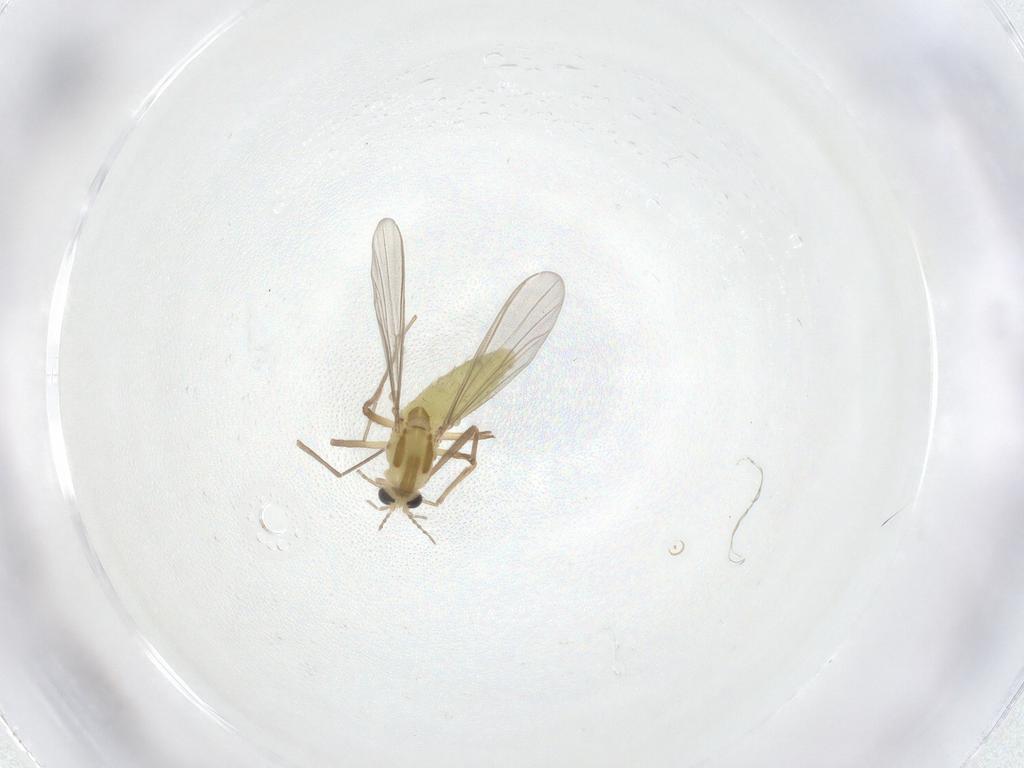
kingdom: Animalia
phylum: Arthropoda
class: Insecta
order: Diptera
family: Chironomidae
